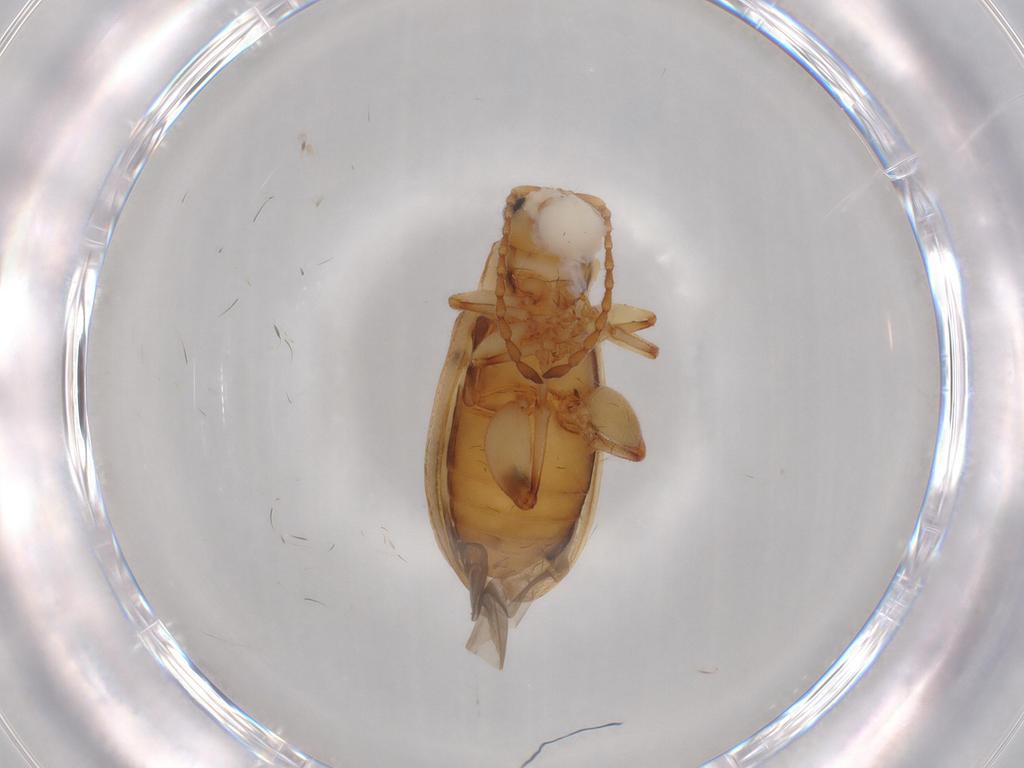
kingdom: Animalia
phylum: Arthropoda
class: Insecta
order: Coleoptera
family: Chrysomelidae
